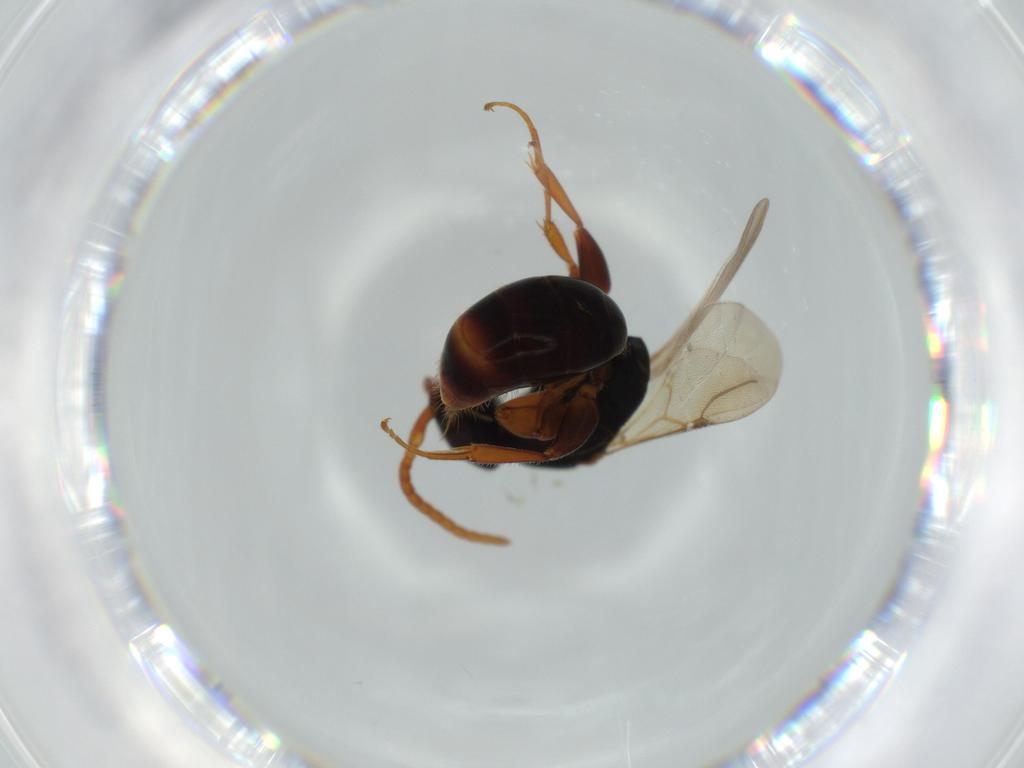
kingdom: Animalia
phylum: Arthropoda
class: Insecta
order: Hymenoptera
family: Bethylidae
